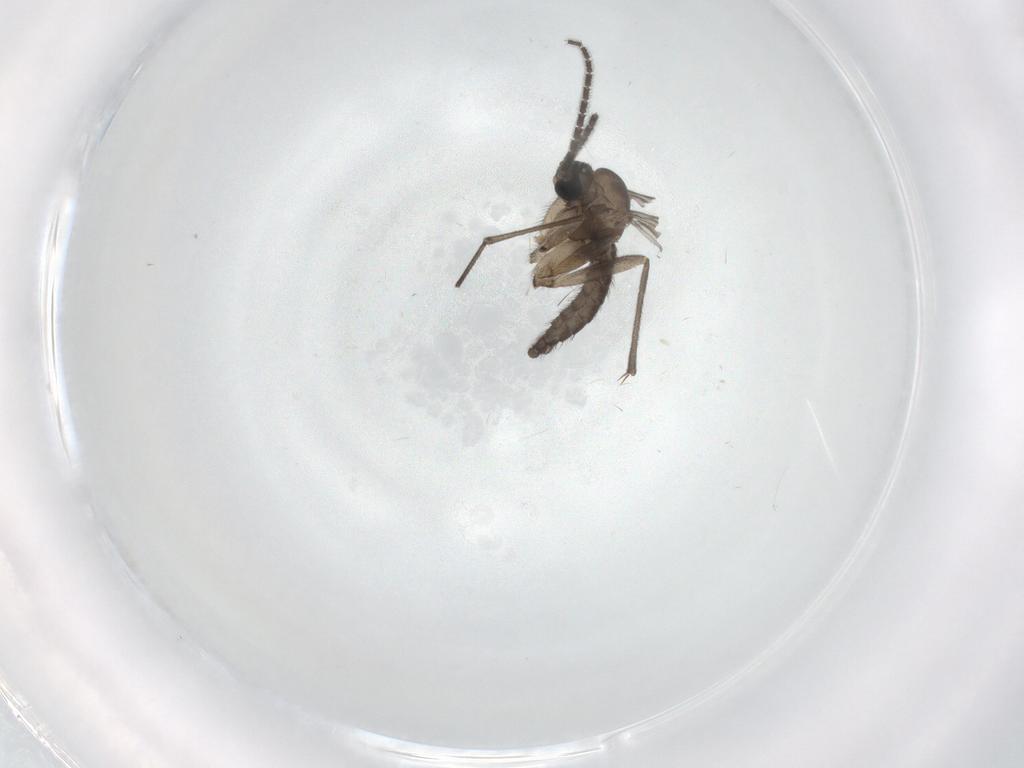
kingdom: Animalia
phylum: Arthropoda
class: Insecta
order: Diptera
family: Sciaridae
